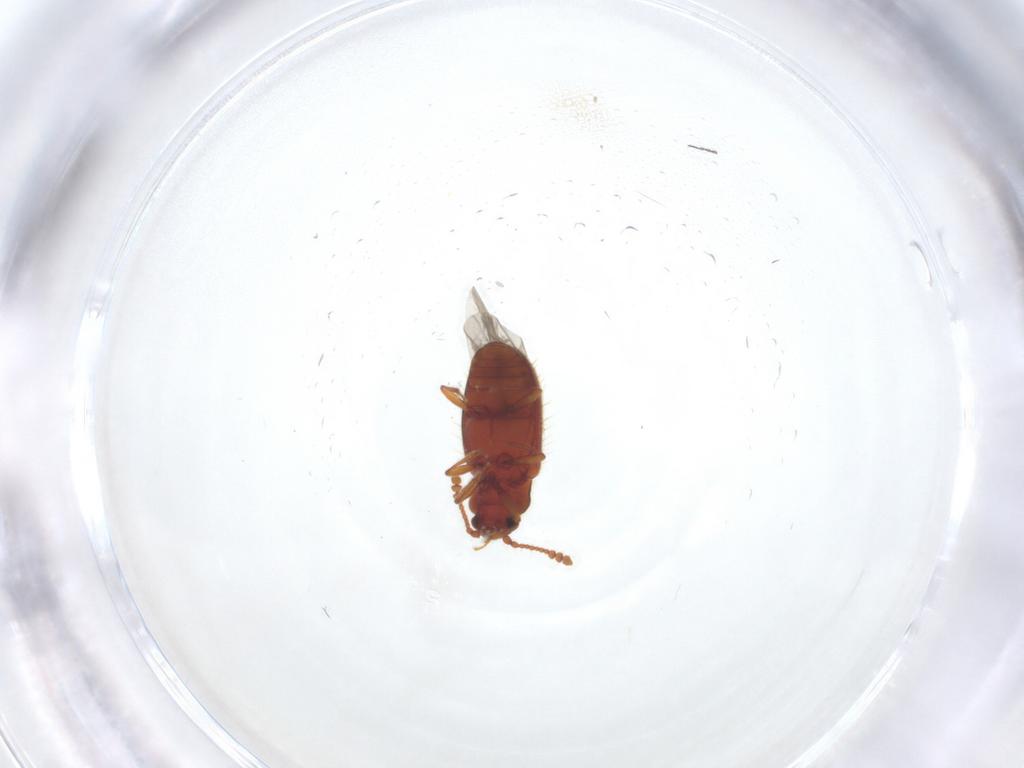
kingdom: Animalia
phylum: Arthropoda
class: Insecta
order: Coleoptera
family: Cryptophagidae
